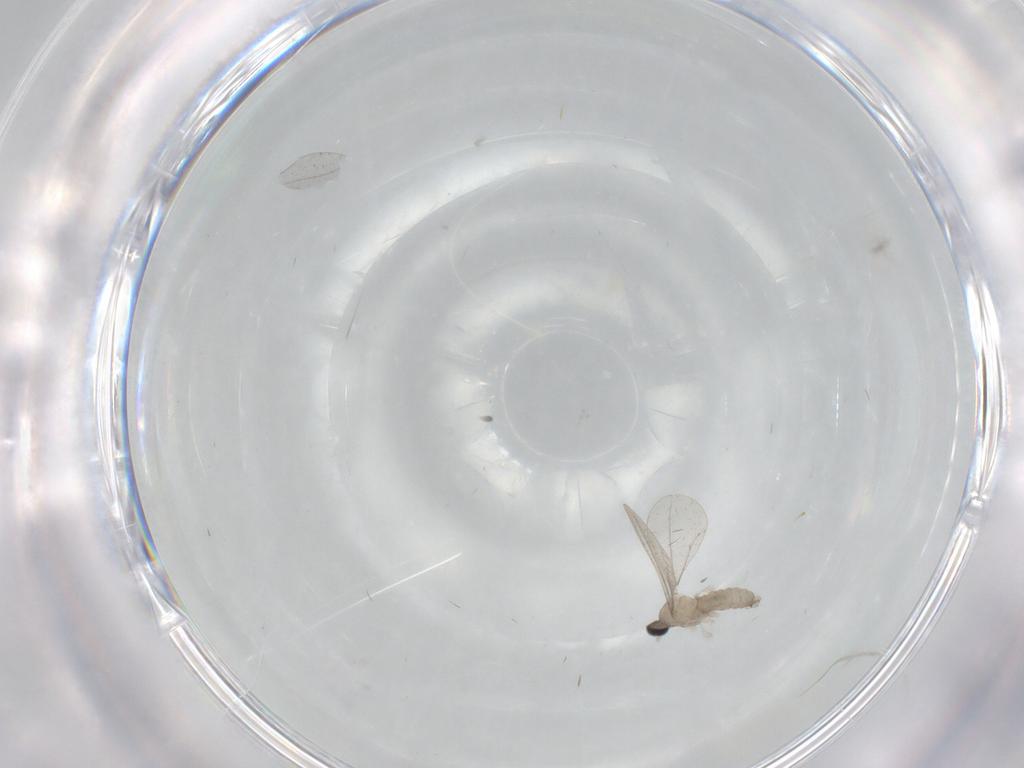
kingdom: Animalia
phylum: Arthropoda
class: Insecta
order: Diptera
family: Cecidomyiidae
